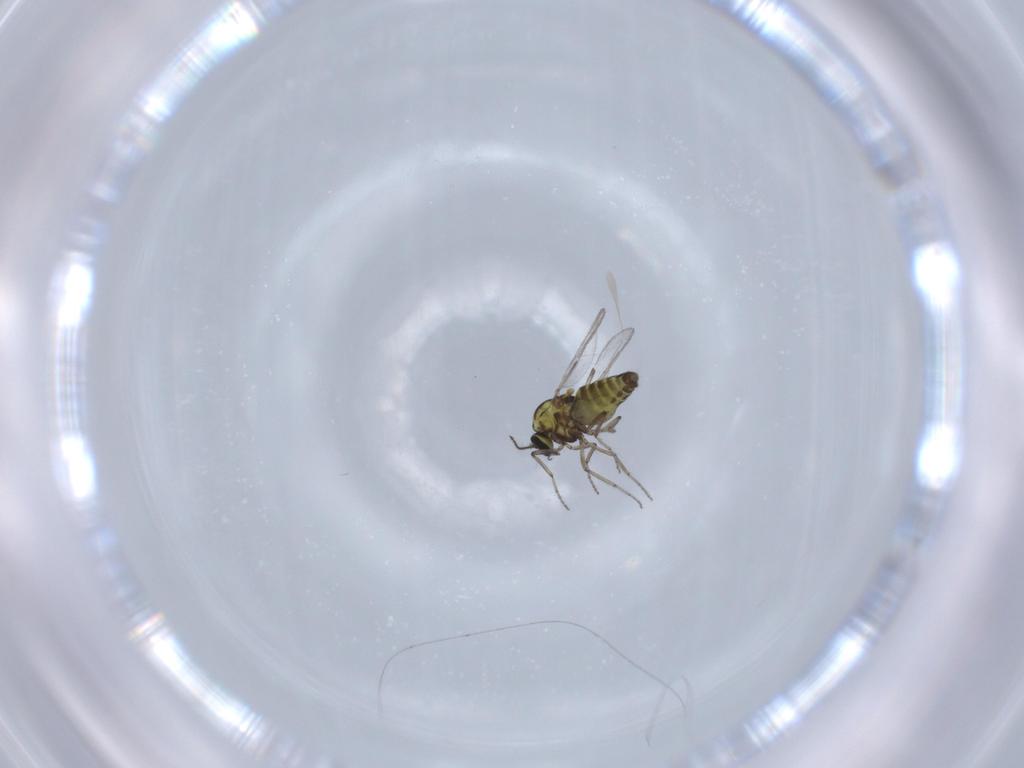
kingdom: Animalia
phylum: Arthropoda
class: Insecta
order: Diptera
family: Ceratopogonidae
